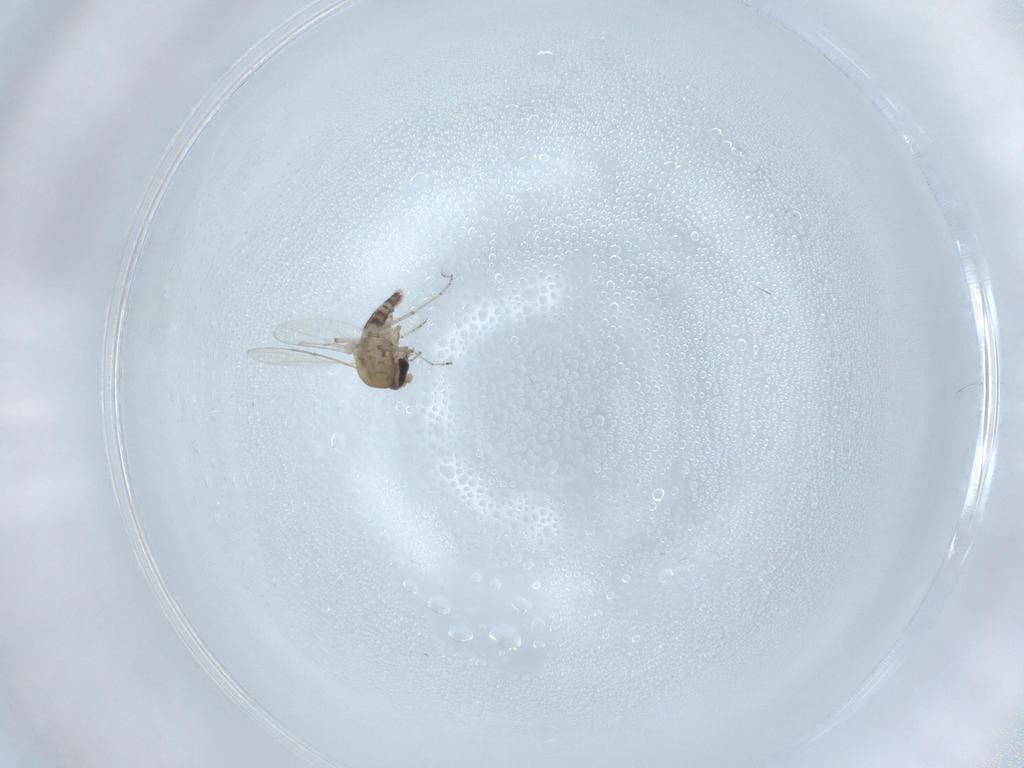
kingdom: Animalia
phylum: Arthropoda
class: Insecta
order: Diptera
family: Ceratopogonidae
